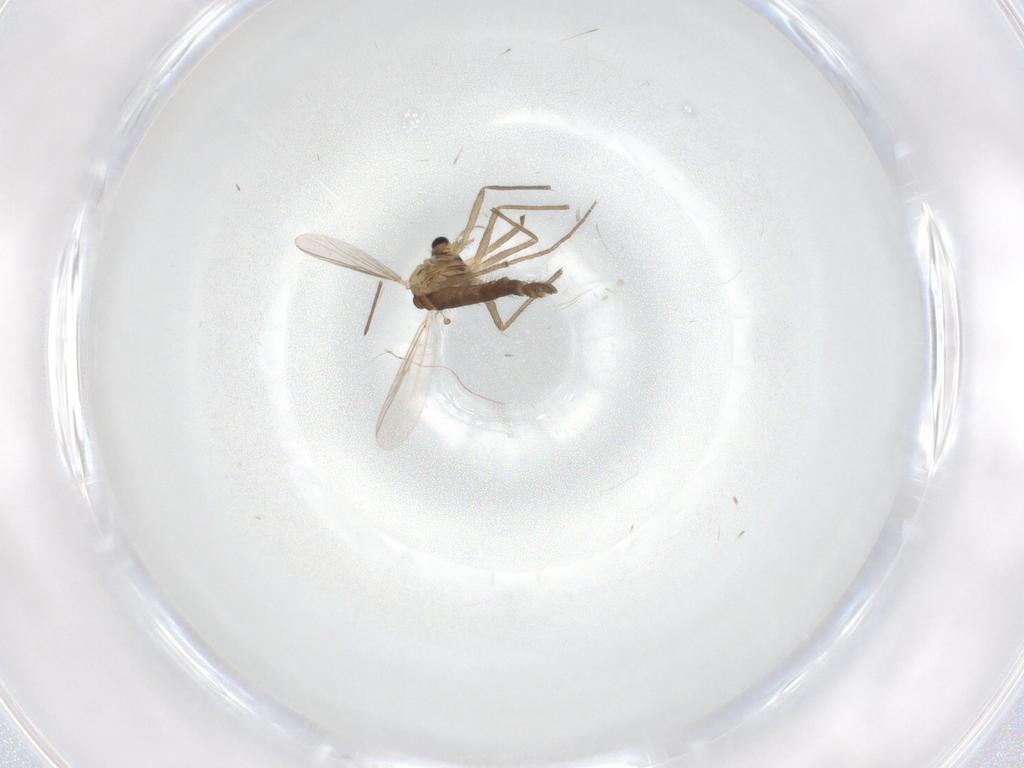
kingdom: Animalia
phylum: Arthropoda
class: Insecta
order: Diptera
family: Chironomidae
